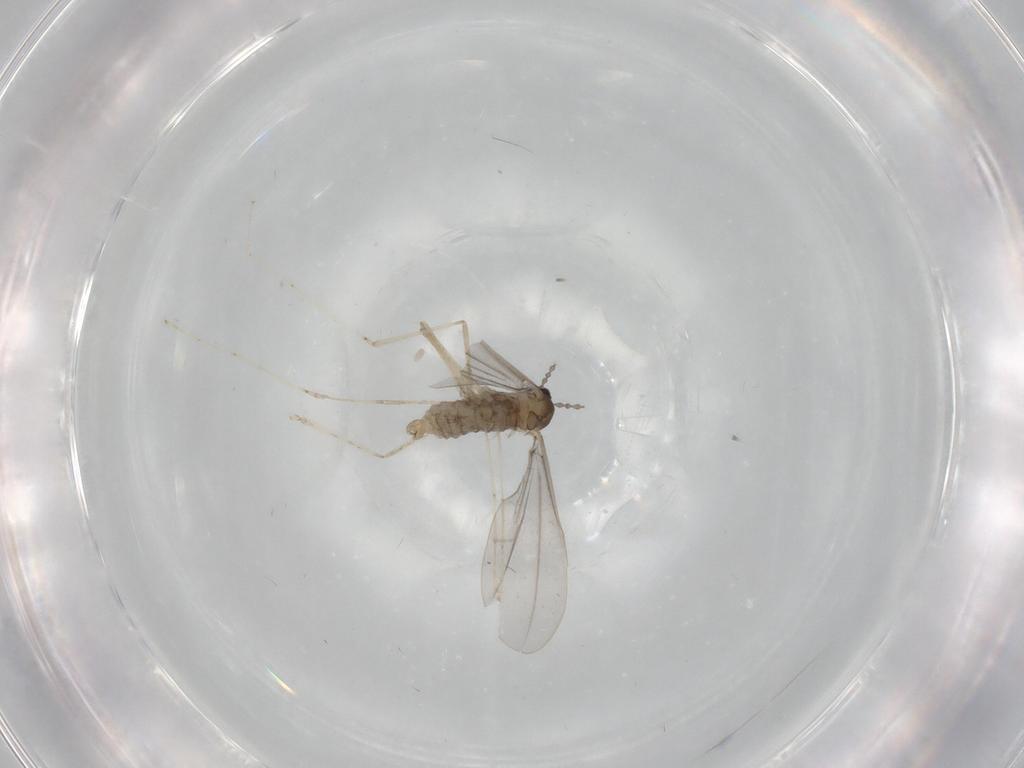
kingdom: Animalia
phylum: Arthropoda
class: Insecta
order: Diptera
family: Cecidomyiidae
